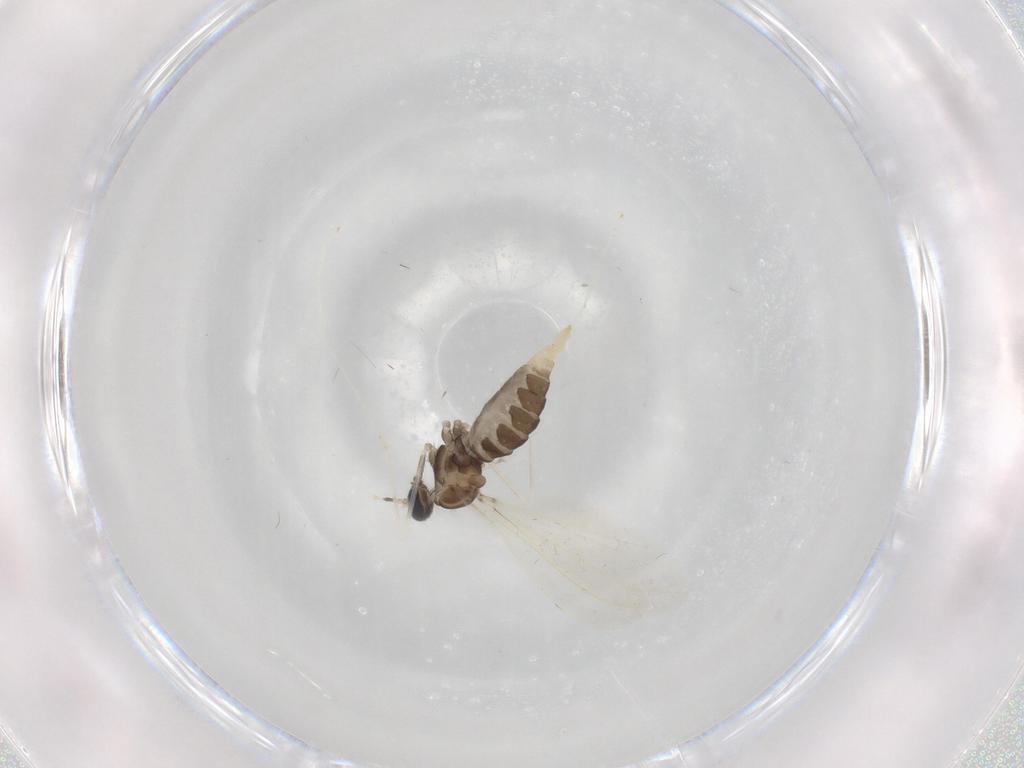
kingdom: Animalia
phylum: Arthropoda
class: Insecta
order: Diptera
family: Cecidomyiidae
